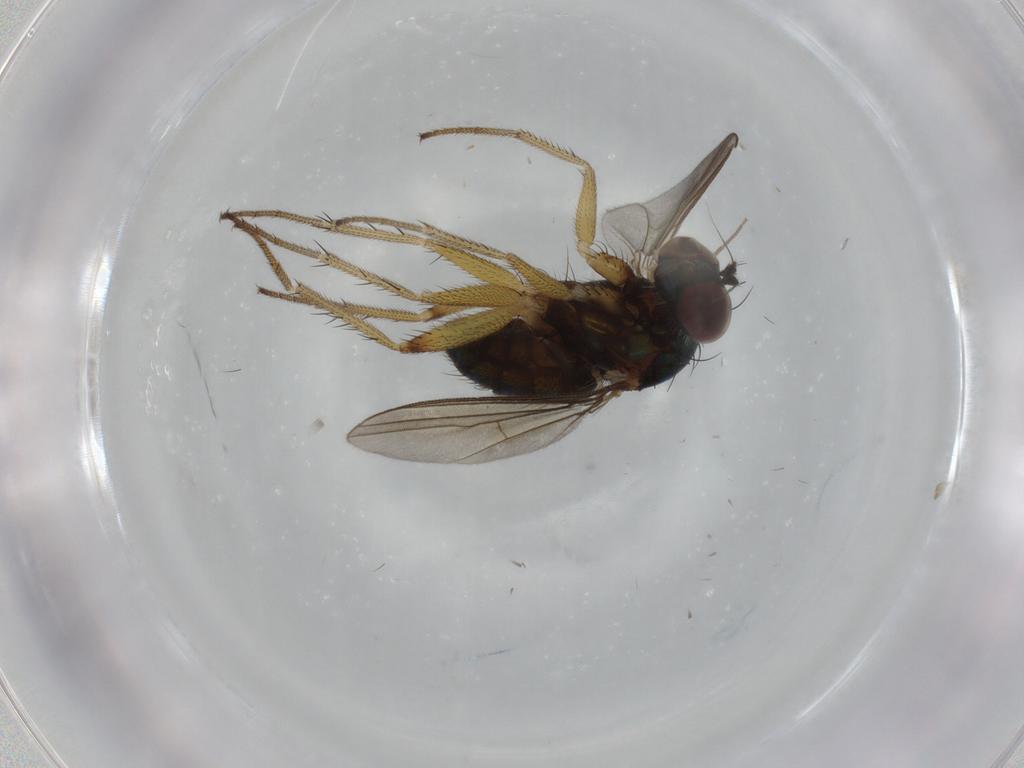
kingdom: Animalia
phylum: Arthropoda
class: Insecta
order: Diptera
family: Dolichopodidae
